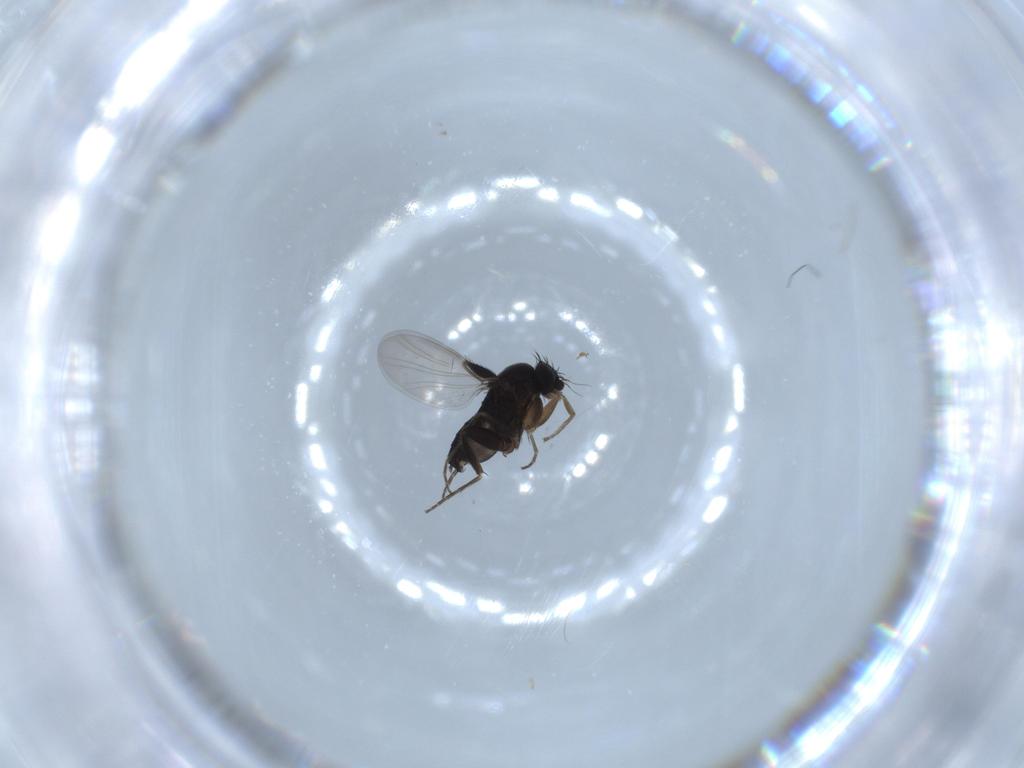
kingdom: Animalia
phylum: Arthropoda
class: Insecta
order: Diptera
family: Phoridae
